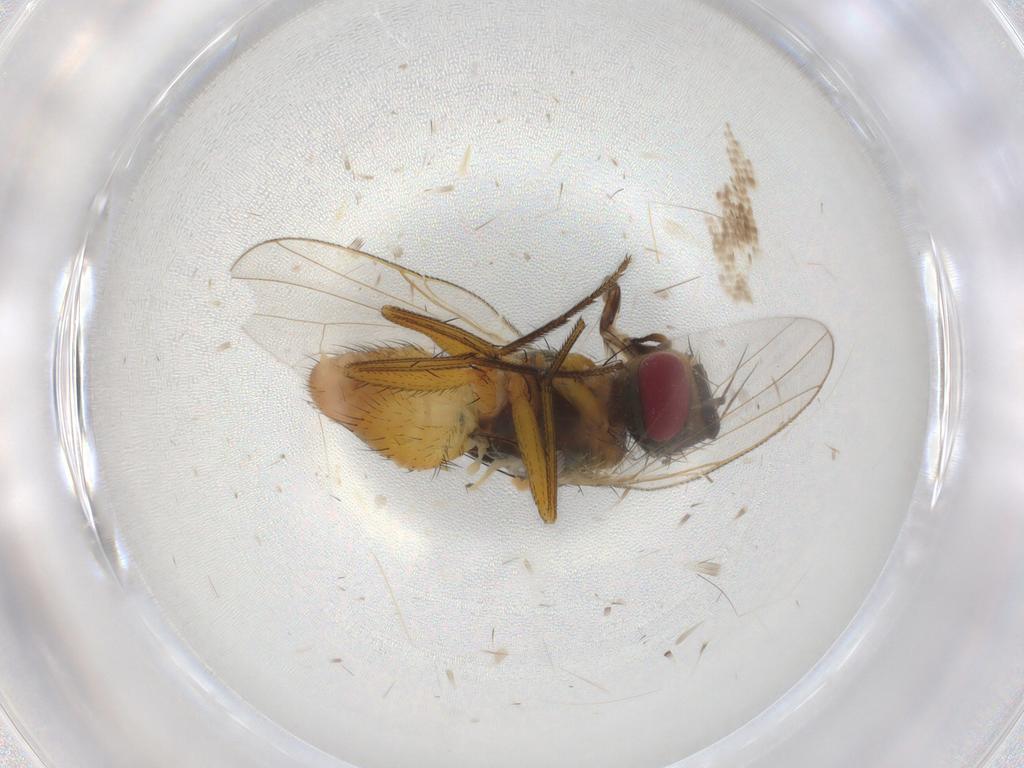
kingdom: Animalia
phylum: Arthropoda
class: Insecta
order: Diptera
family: Muscidae
